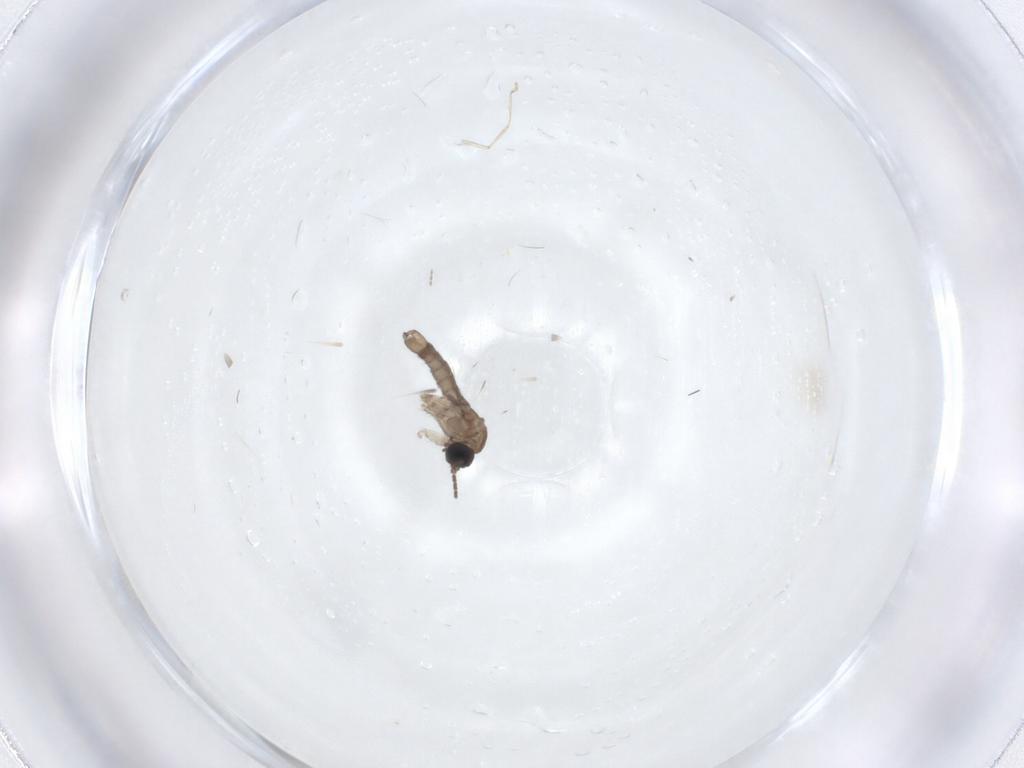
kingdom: Animalia
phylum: Arthropoda
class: Insecta
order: Diptera
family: Sciaridae
